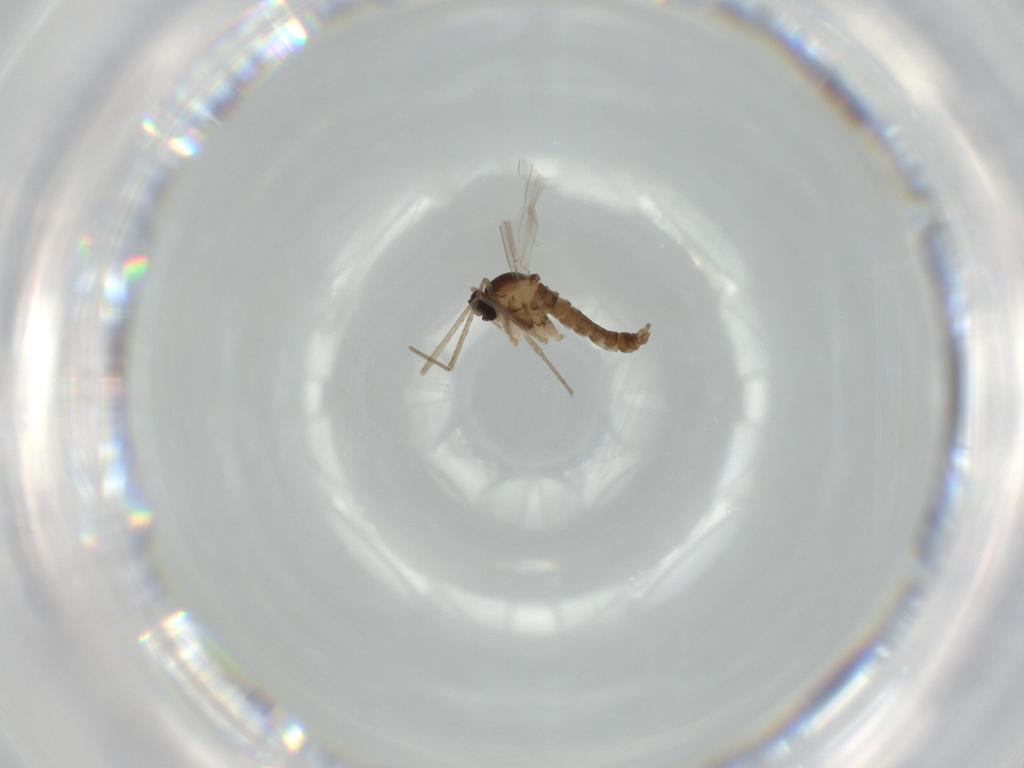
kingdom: Animalia
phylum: Arthropoda
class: Insecta
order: Diptera
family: Cecidomyiidae
